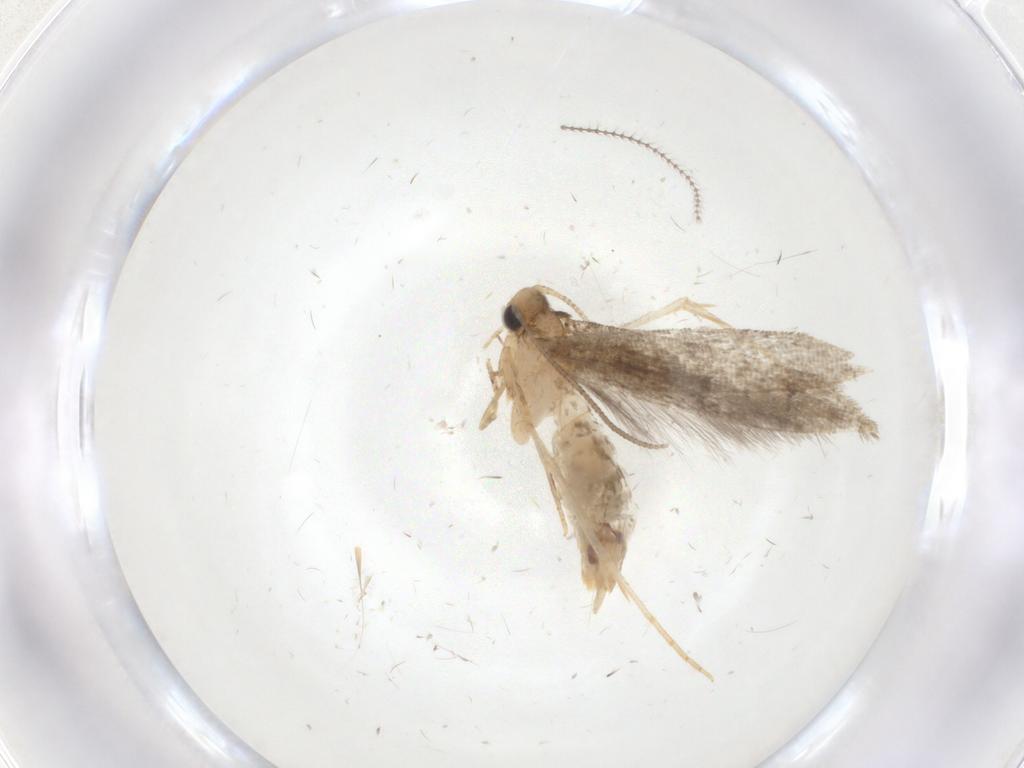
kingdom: Animalia
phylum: Arthropoda
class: Insecta
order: Lepidoptera
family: Tineidae
